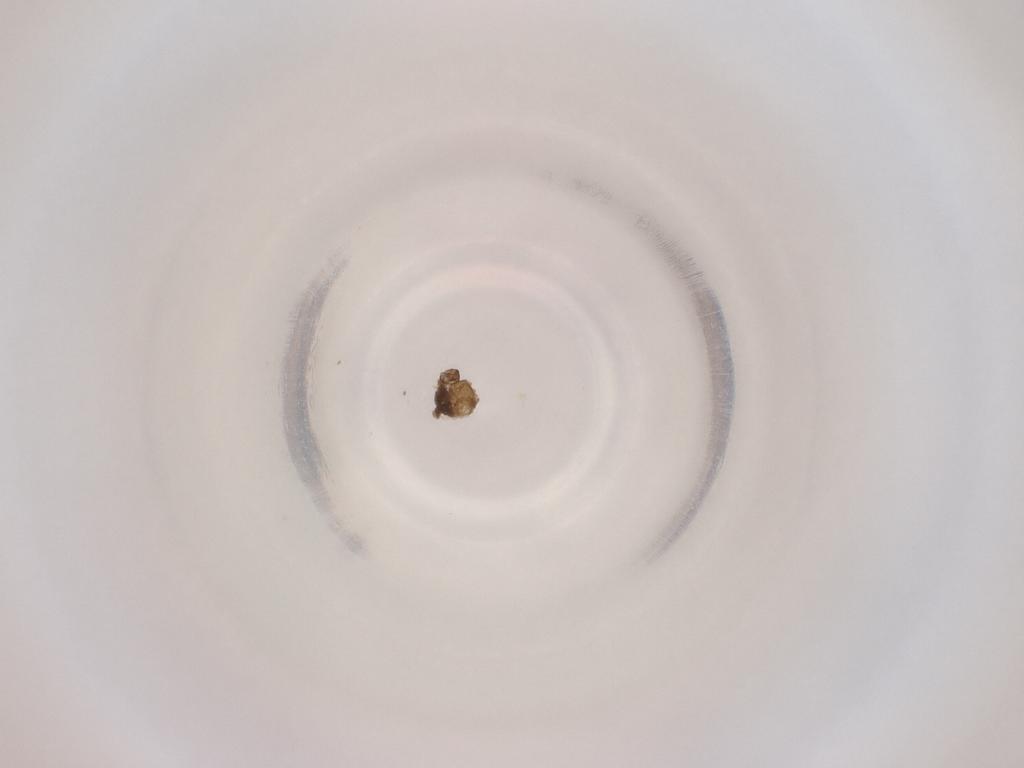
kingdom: Animalia
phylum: Arthropoda
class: Insecta
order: Diptera
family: Cecidomyiidae
